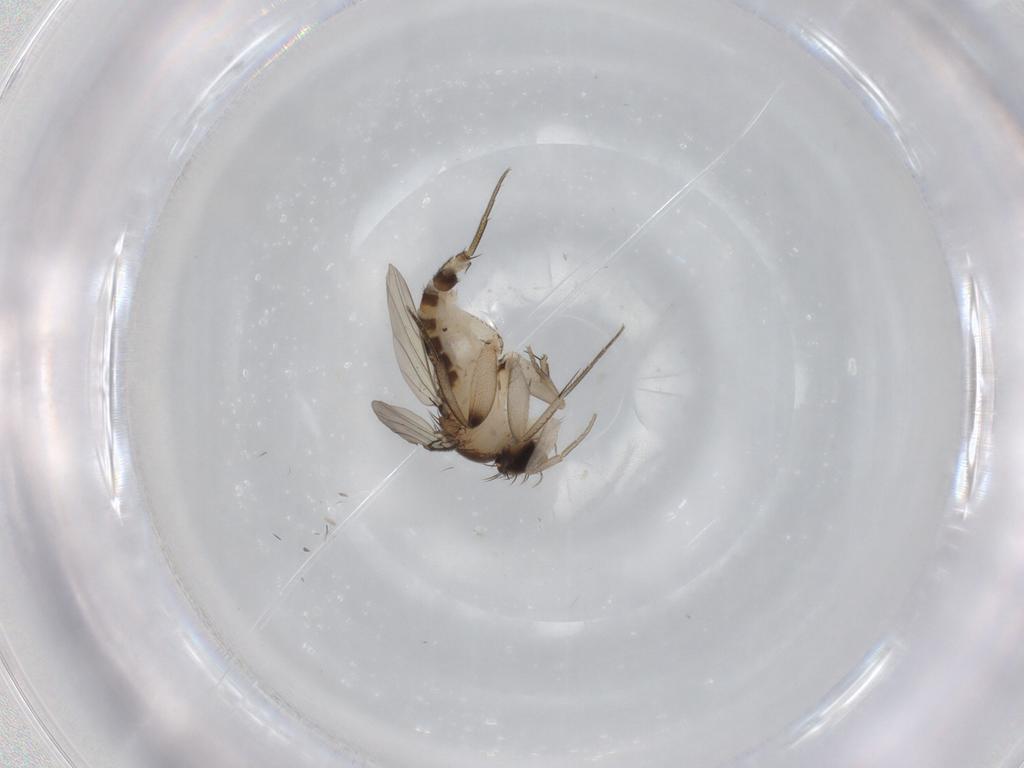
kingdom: Animalia
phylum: Arthropoda
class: Insecta
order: Diptera
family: Phoridae
